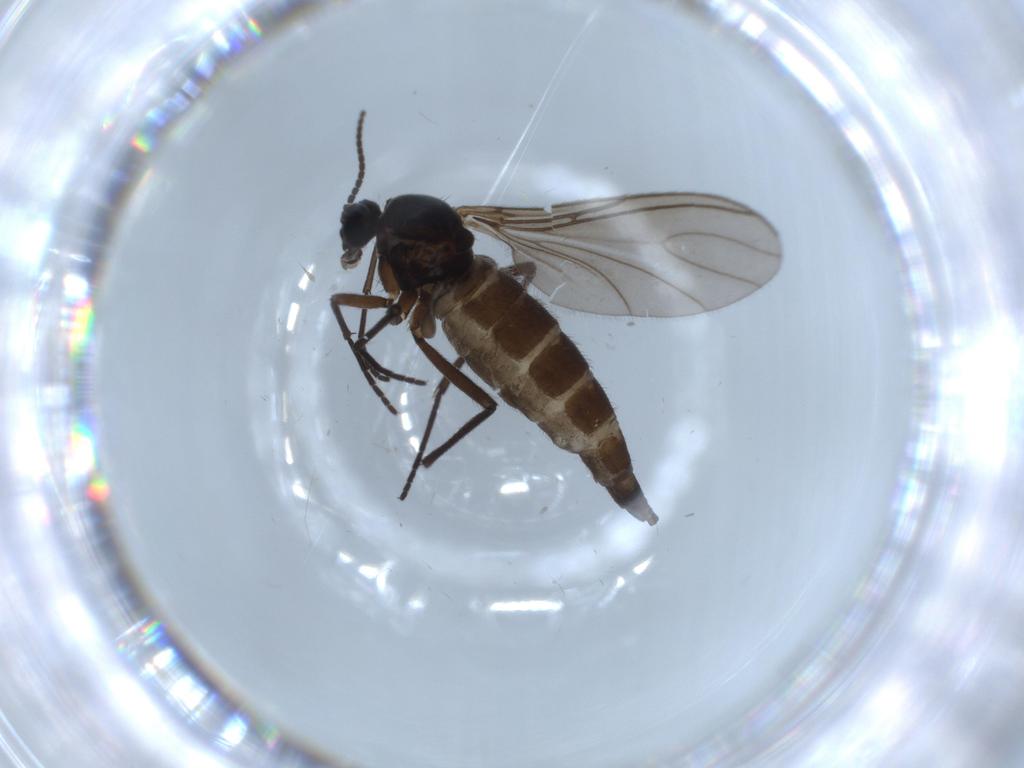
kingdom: Animalia
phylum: Arthropoda
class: Insecta
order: Diptera
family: Sciaridae
